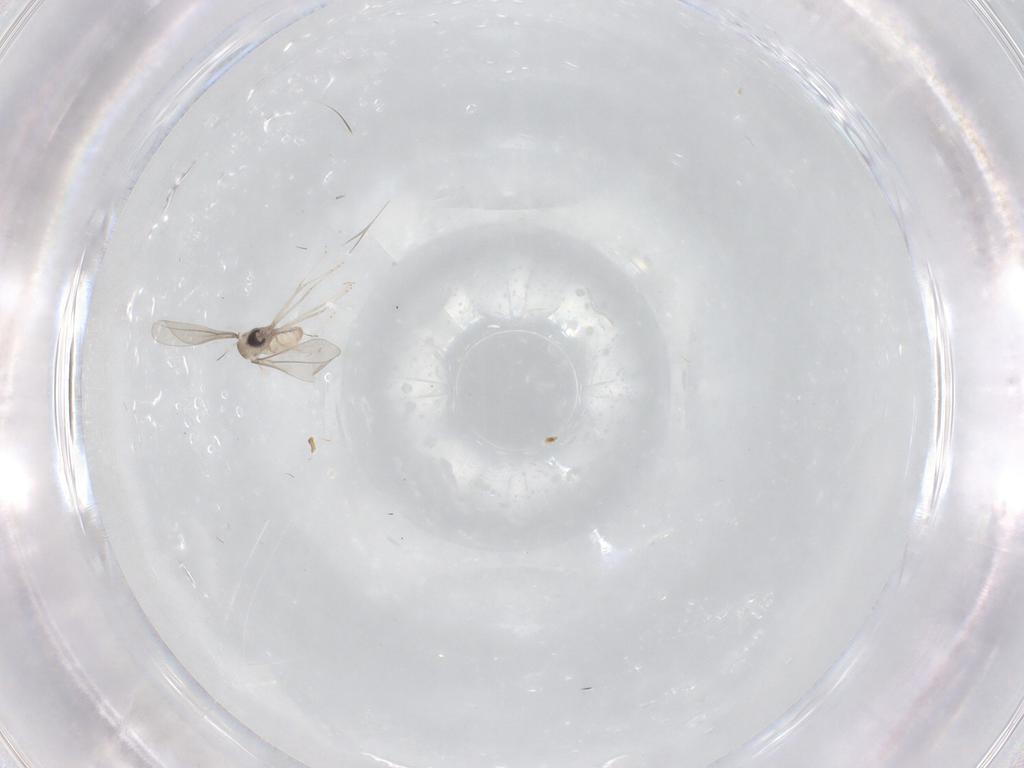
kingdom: Animalia
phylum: Arthropoda
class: Insecta
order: Diptera
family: Cecidomyiidae
